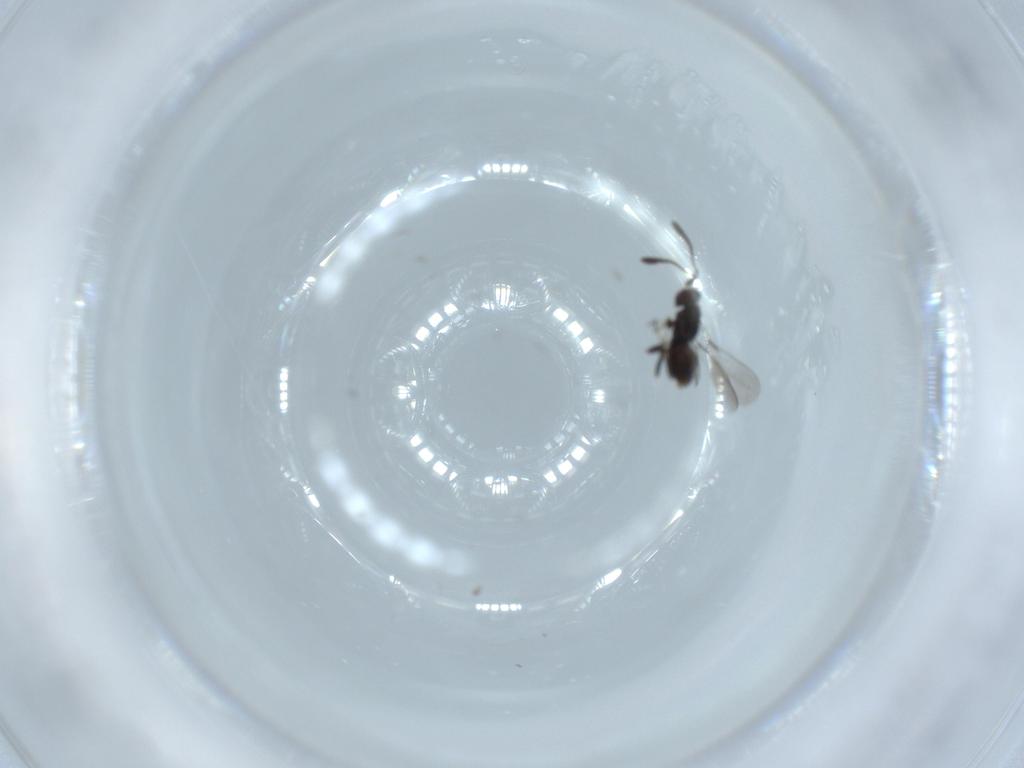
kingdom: Animalia
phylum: Arthropoda
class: Insecta
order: Hymenoptera
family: Mymaridae
